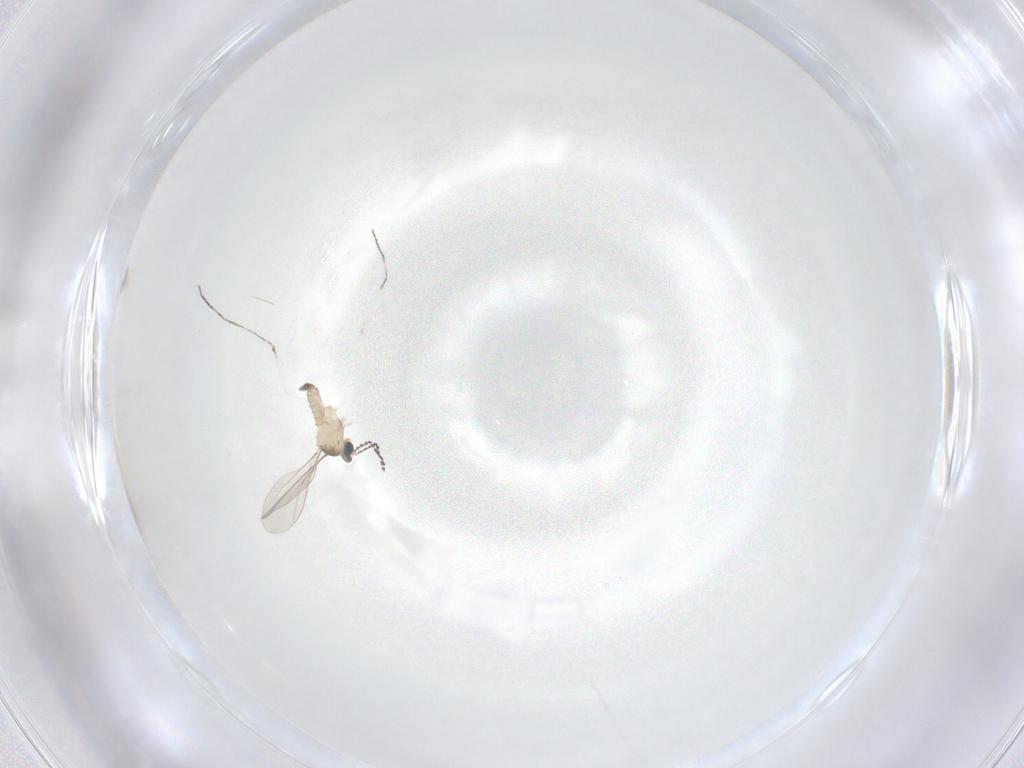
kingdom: Animalia
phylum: Arthropoda
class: Insecta
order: Diptera
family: Cecidomyiidae
